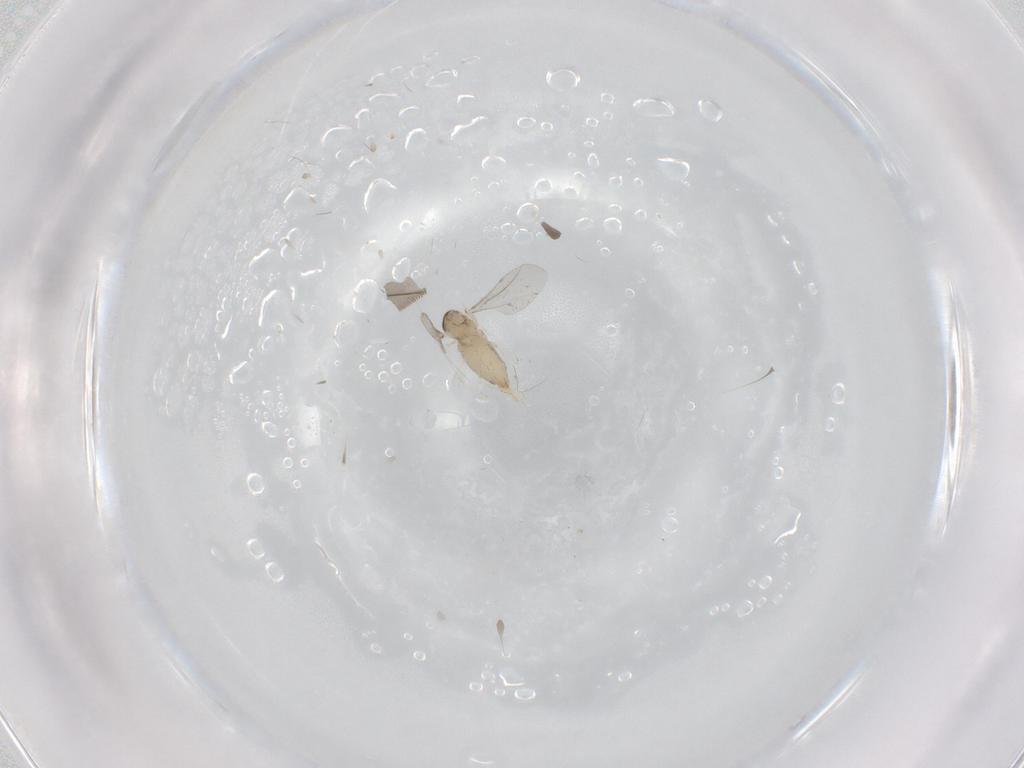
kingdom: Animalia
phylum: Arthropoda
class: Insecta
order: Diptera
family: Cecidomyiidae
